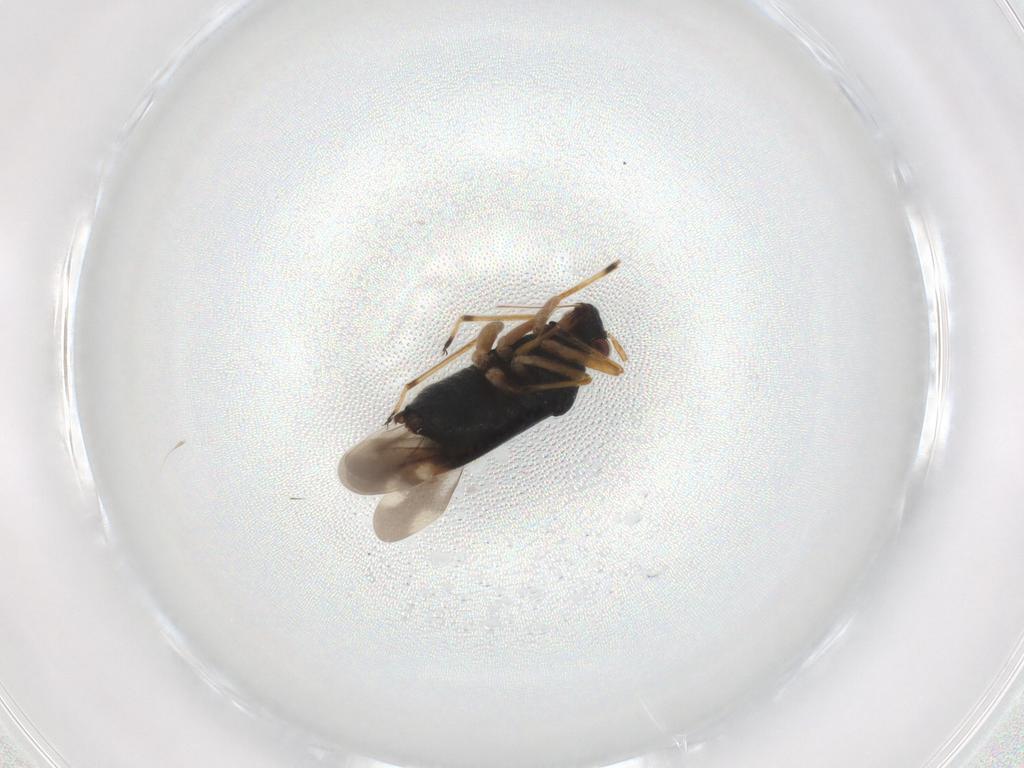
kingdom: Animalia
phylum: Arthropoda
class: Insecta
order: Hemiptera
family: Miridae
